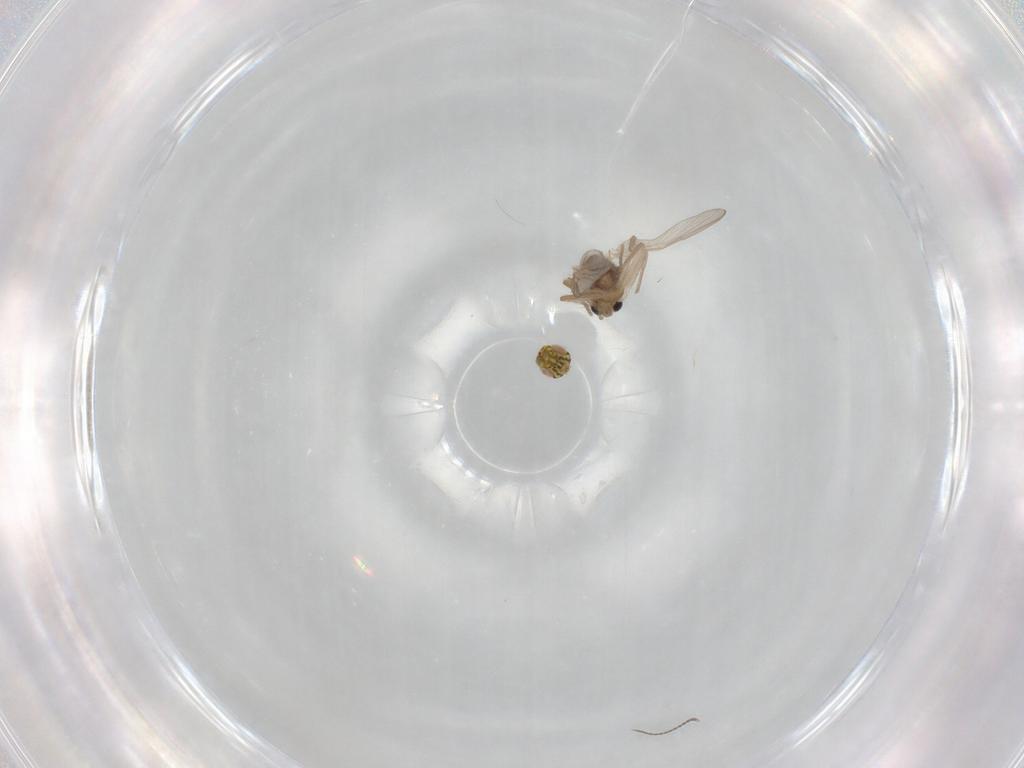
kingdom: Animalia
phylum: Arthropoda
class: Insecta
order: Diptera
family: Chironomidae
